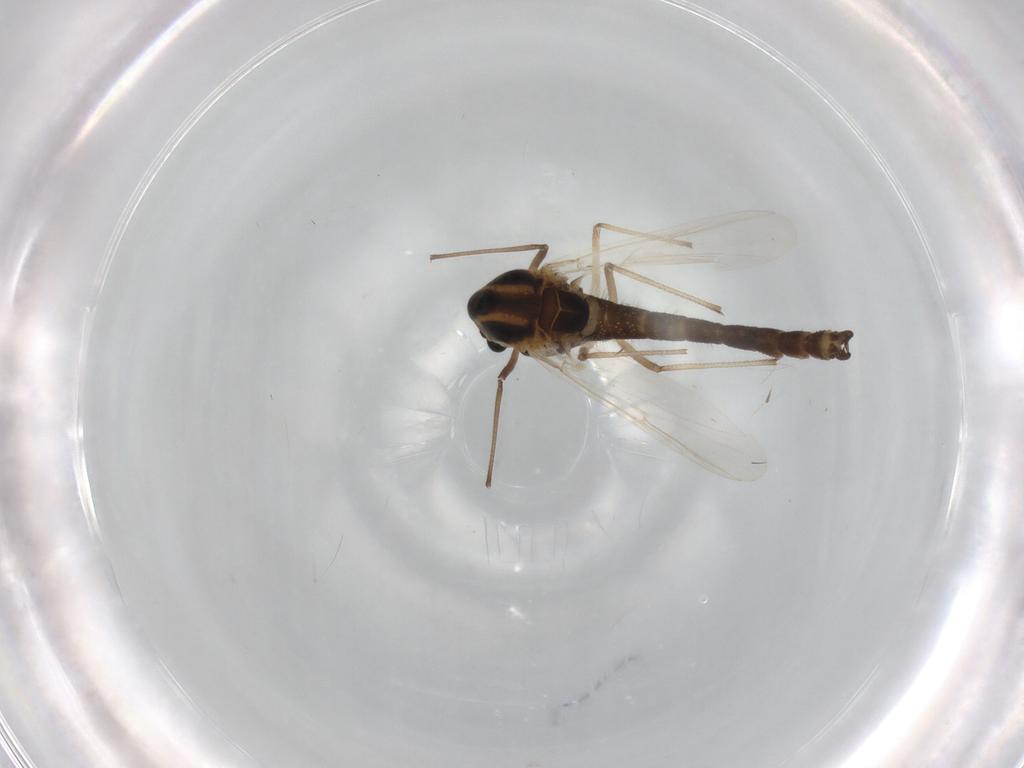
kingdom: Animalia
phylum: Arthropoda
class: Insecta
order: Diptera
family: Chironomidae
